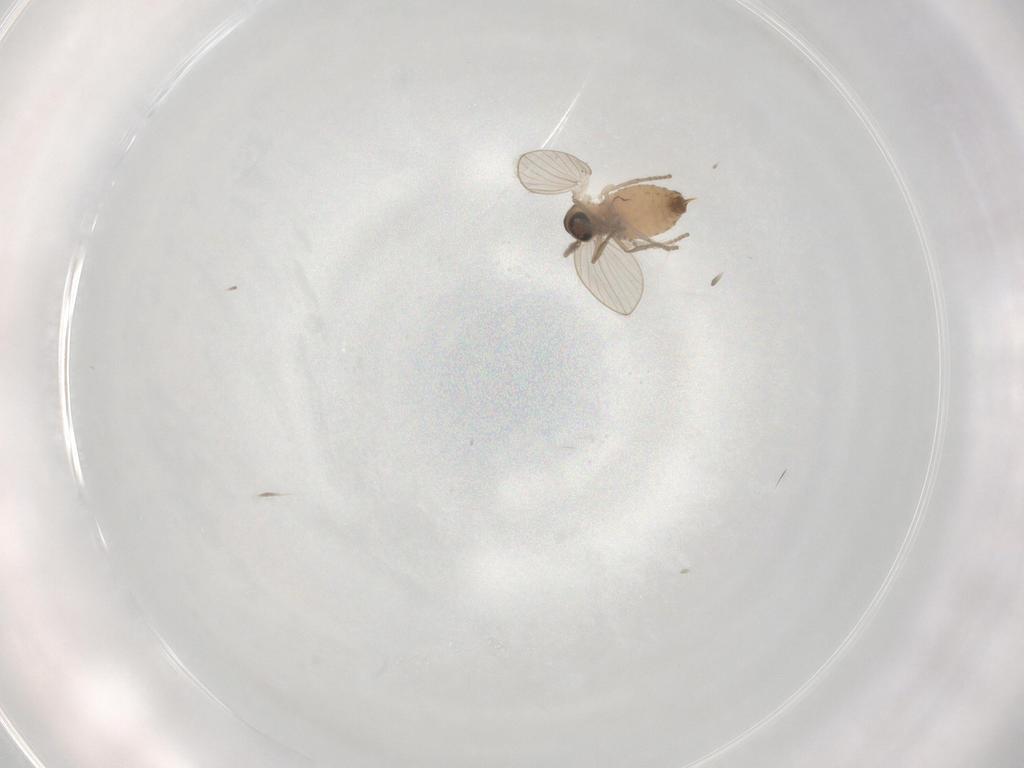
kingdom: Animalia
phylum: Arthropoda
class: Insecta
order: Diptera
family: Psychodidae
